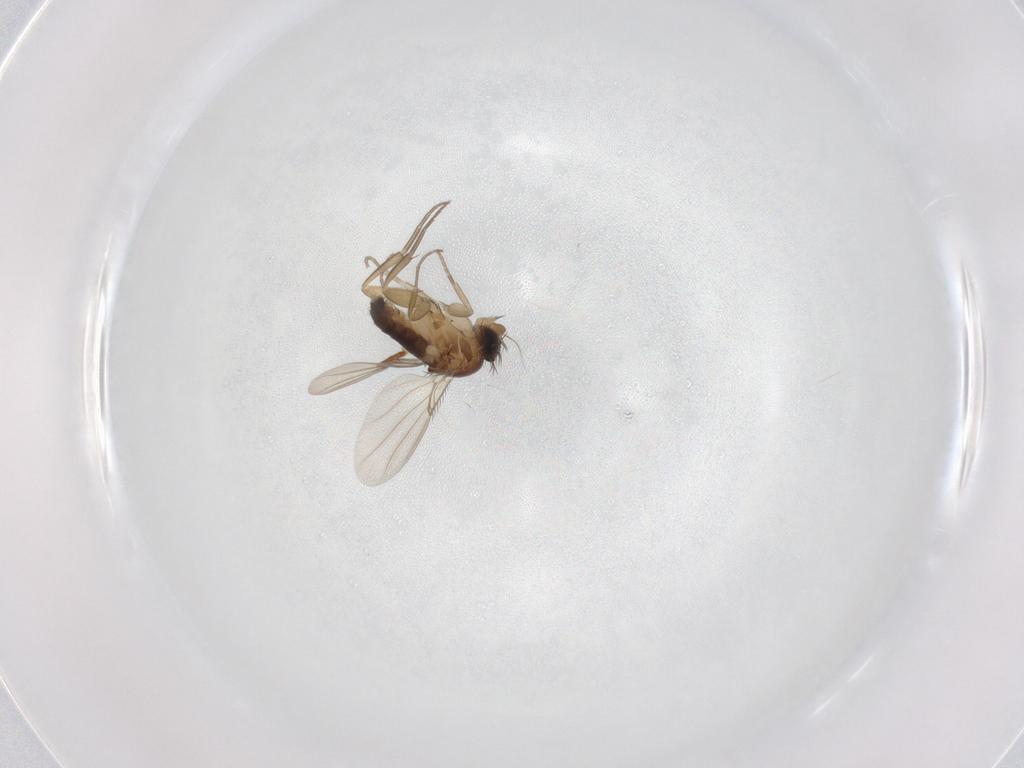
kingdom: Animalia
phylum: Arthropoda
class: Insecta
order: Diptera
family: Phoridae
